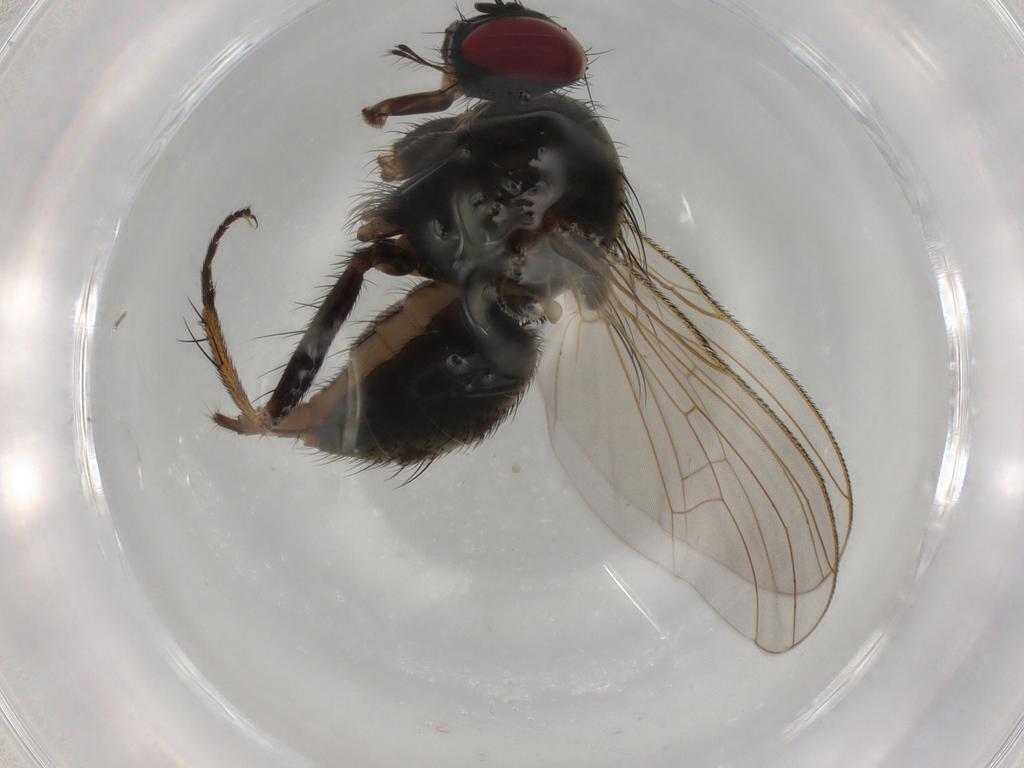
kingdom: Animalia
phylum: Arthropoda
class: Insecta
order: Diptera
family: Muscidae
